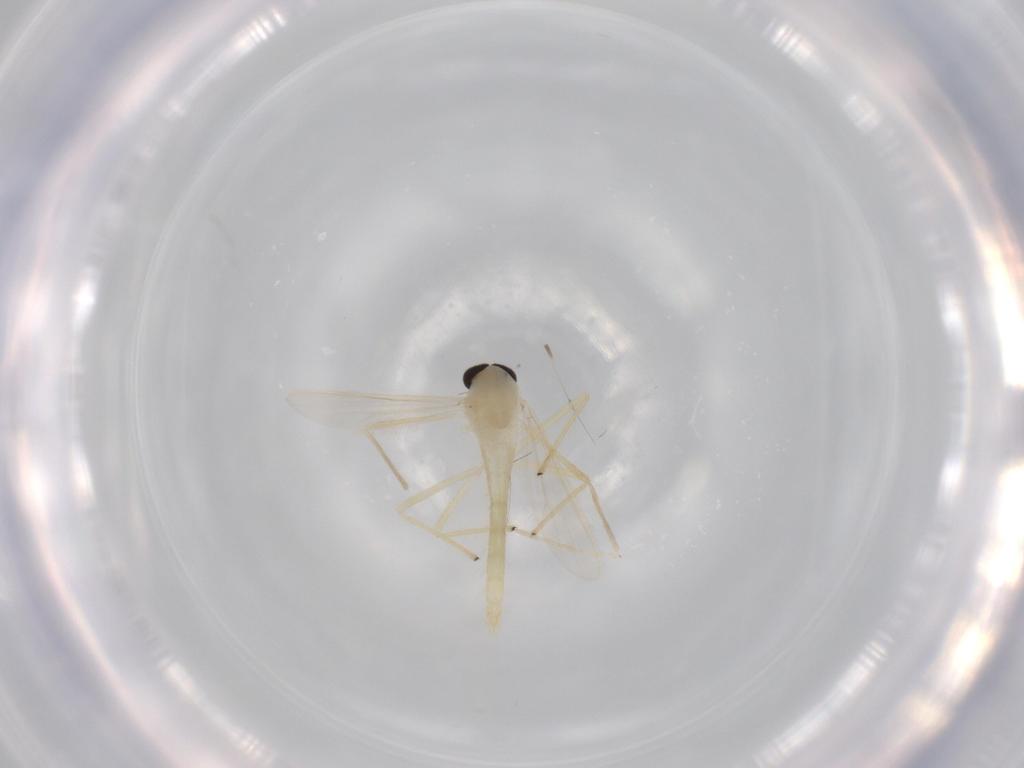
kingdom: Animalia
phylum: Arthropoda
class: Insecta
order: Diptera
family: Chironomidae
